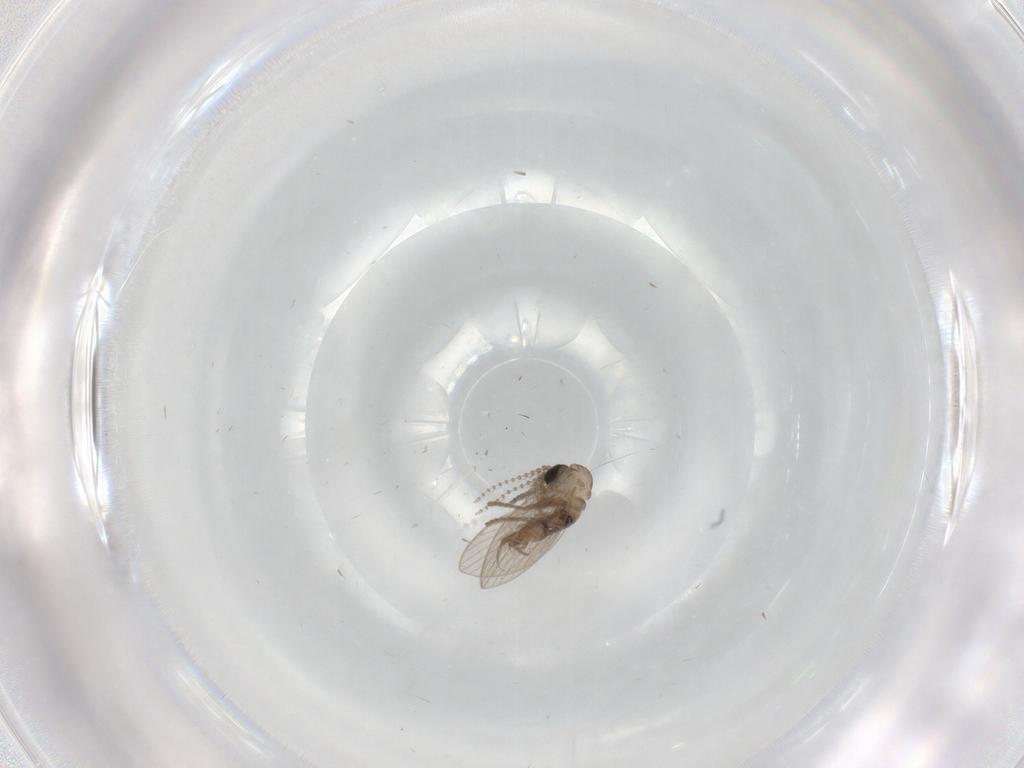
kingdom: Animalia
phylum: Arthropoda
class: Insecta
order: Diptera
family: Psychodidae
